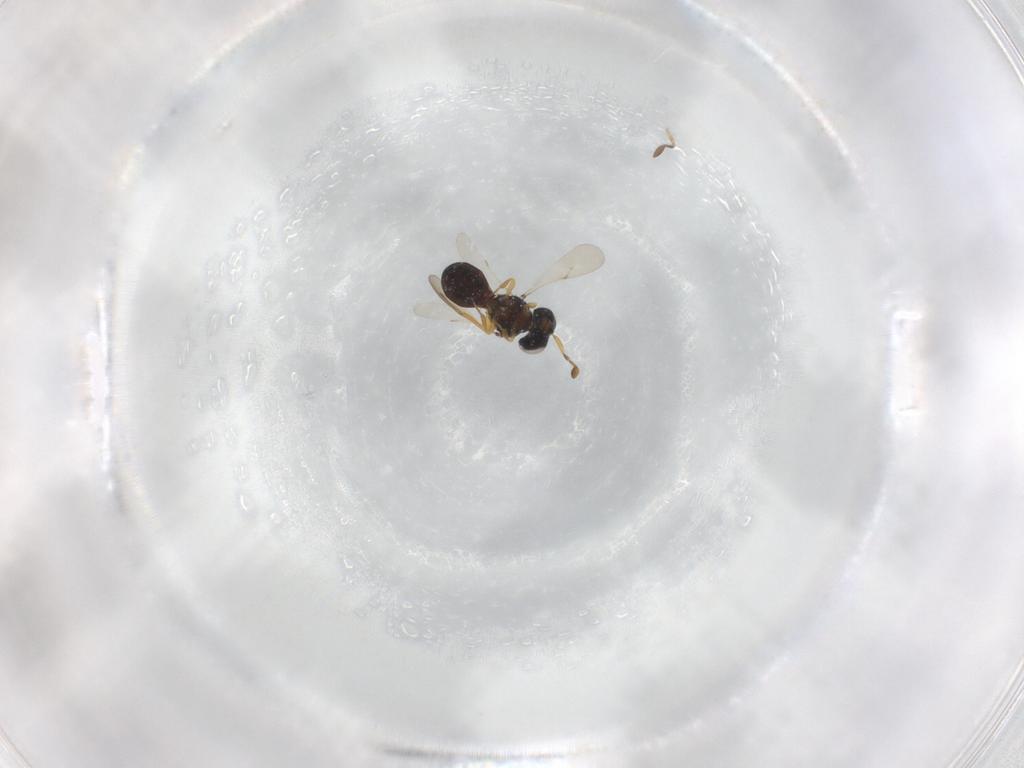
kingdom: Animalia
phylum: Arthropoda
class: Insecta
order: Hymenoptera
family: Scelionidae
